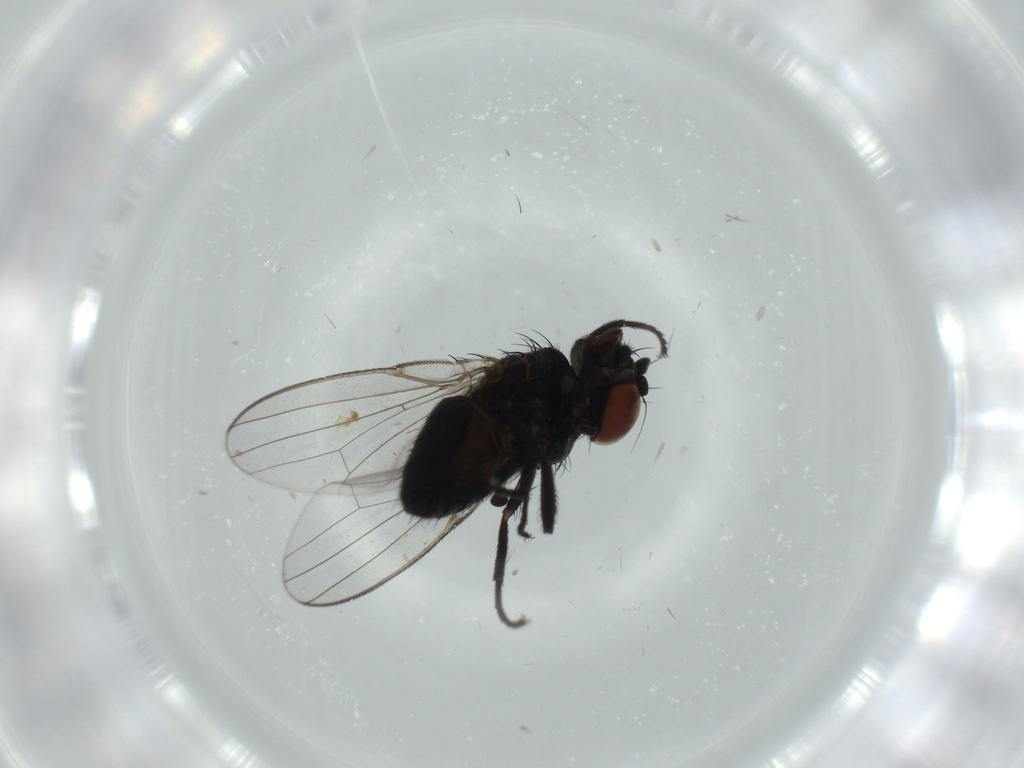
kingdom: Animalia
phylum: Arthropoda
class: Insecta
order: Diptera
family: Milichiidae
